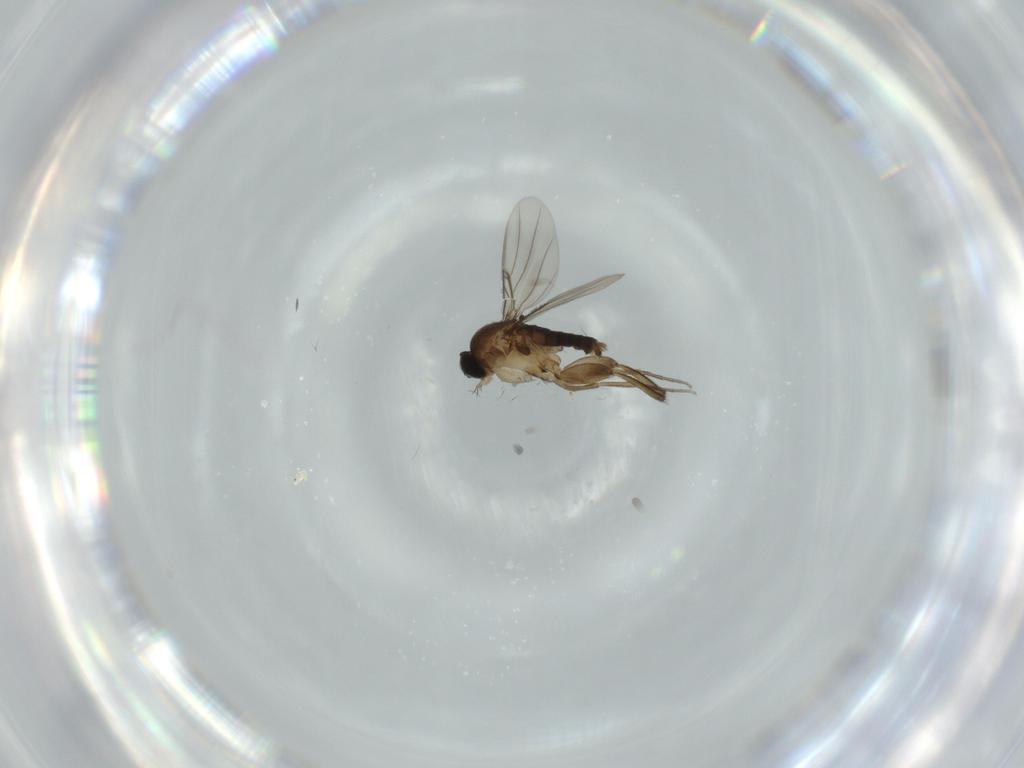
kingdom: Animalia
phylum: Arthropoda
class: Insecta
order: Diptera
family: Phoridae
